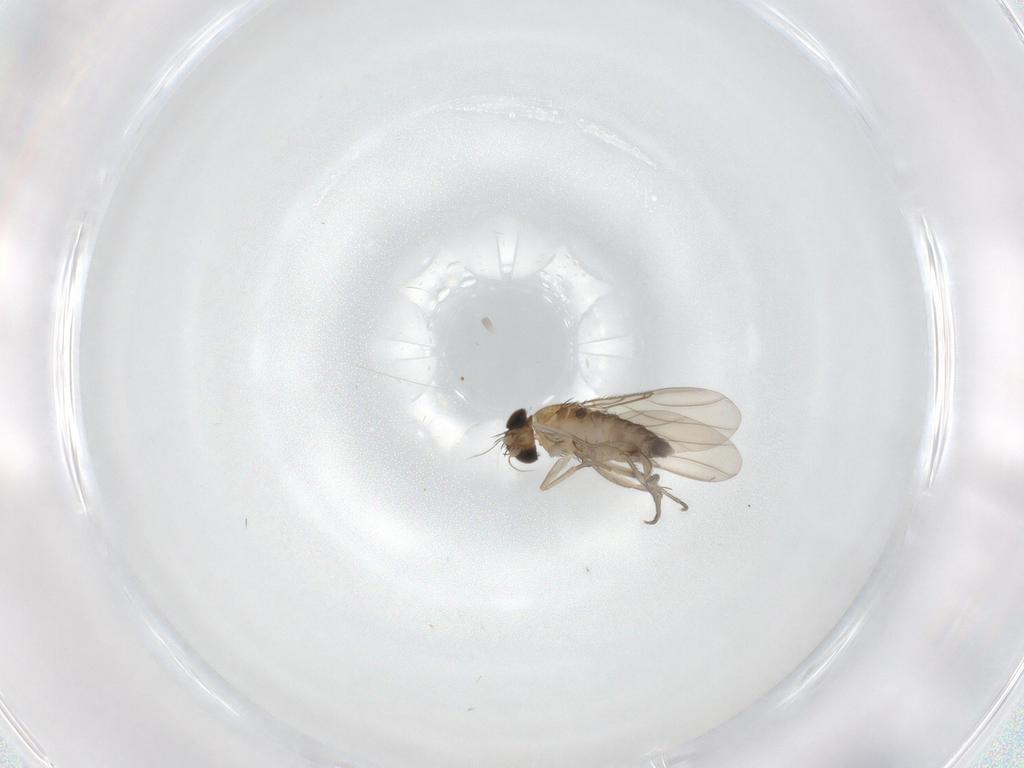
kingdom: Animalia
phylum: Arthropoda
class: Insecta
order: Diptera
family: Phoridae
